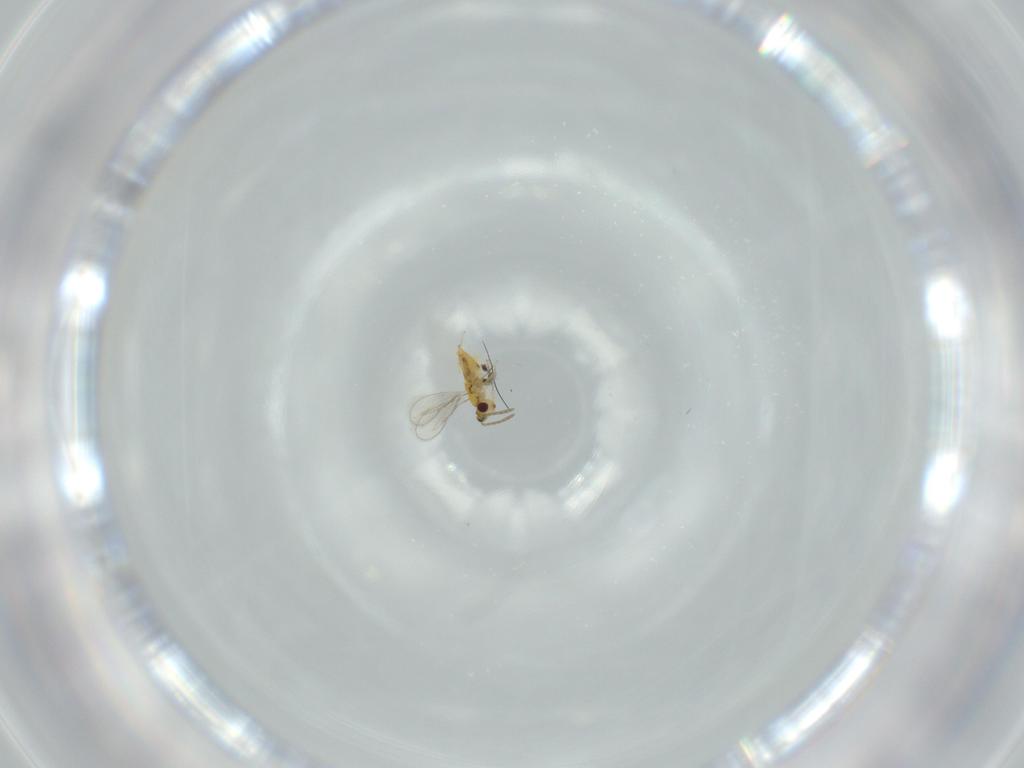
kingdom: Animalia
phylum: Arthropoda
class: Insecta
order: Hymenoptera
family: Aphelinidae
